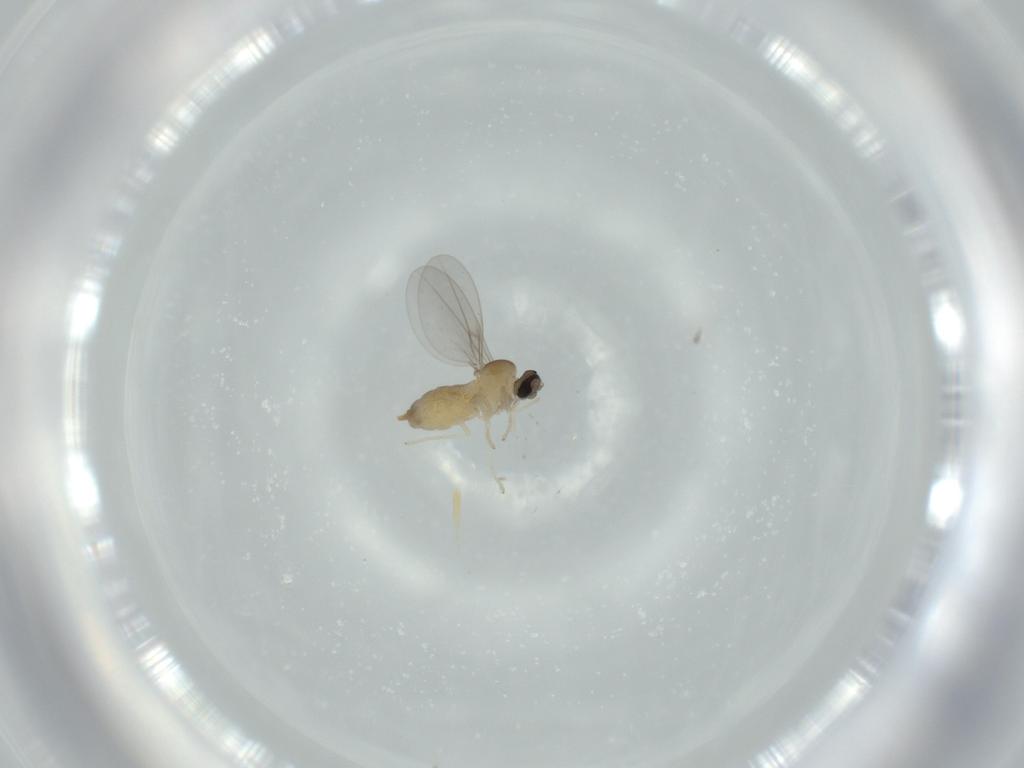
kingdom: Animalia
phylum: Arthropoda
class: Insecta
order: Diptera
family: Cecidomyiidae
